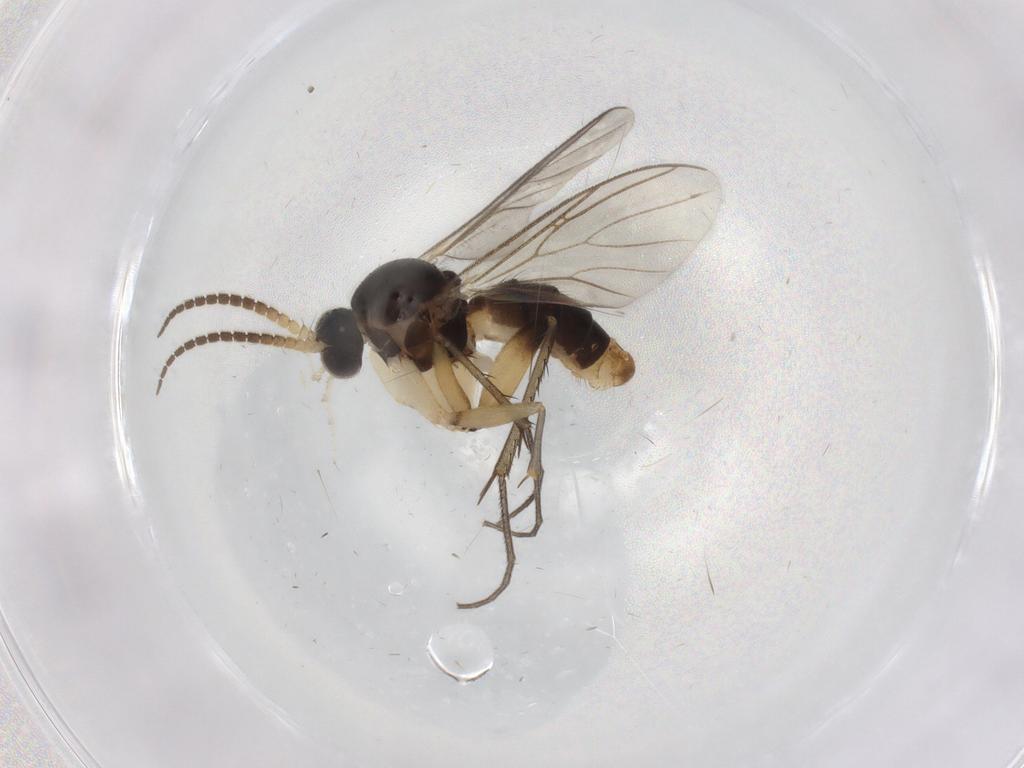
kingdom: Animalia
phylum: Arthropoda
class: Insecta
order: Diptera
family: Mycetophilidae
